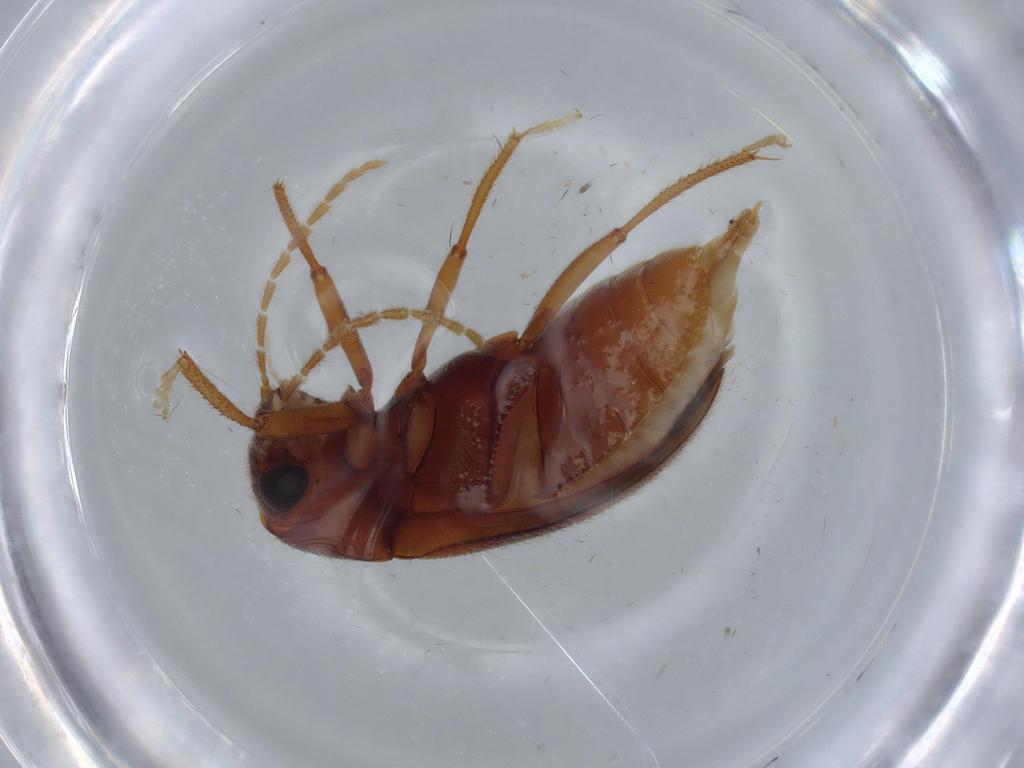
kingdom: Animalia
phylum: Arthropoda
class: Insecta
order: Coleoptera
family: Ptilodactylidae
